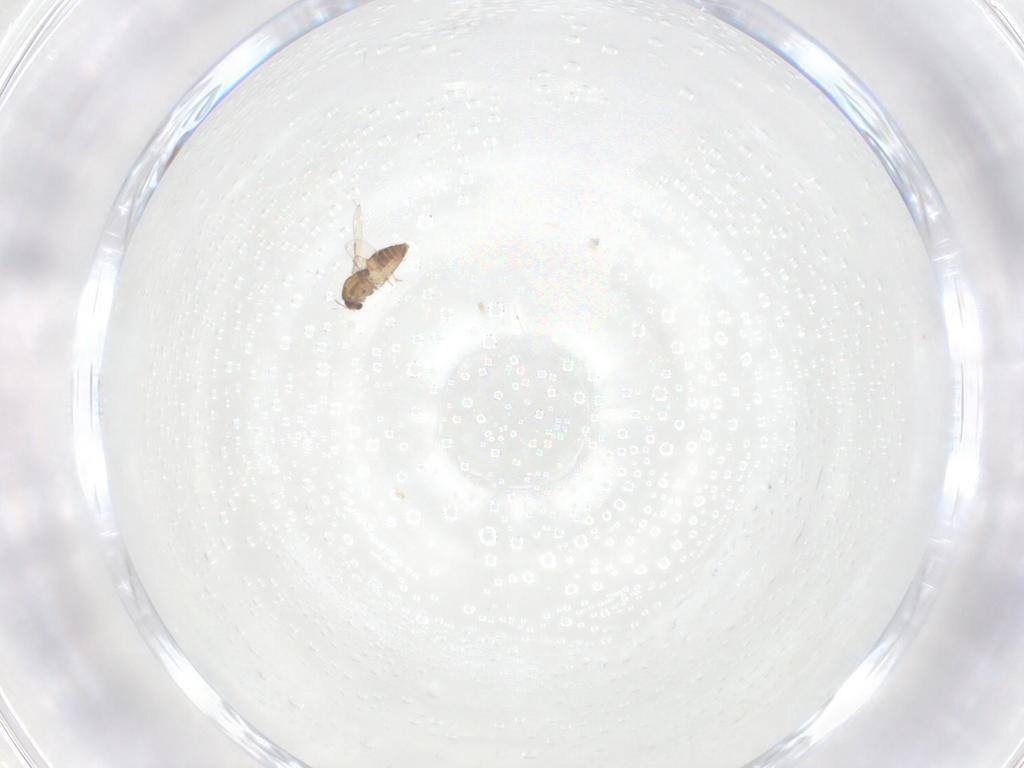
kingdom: Animalia
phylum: Arthropoda
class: Insecta
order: Diptera
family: Chironomidae
